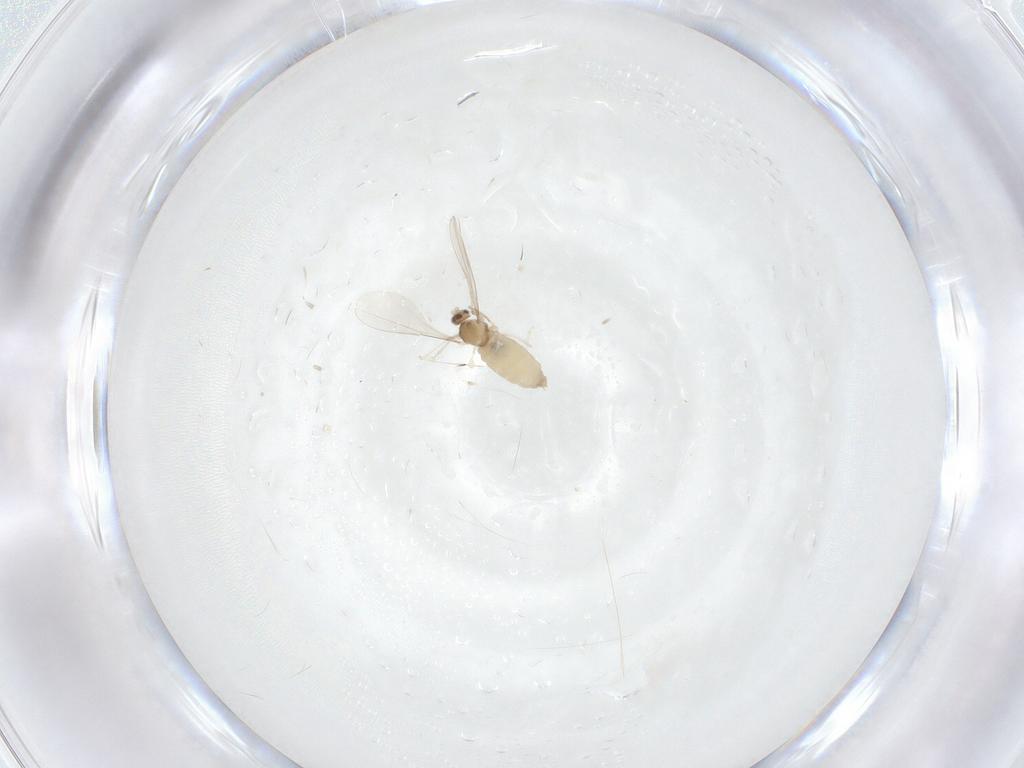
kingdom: Animalia
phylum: Arthropoda
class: Insecta
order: Diptera
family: Cecidomyiidae
